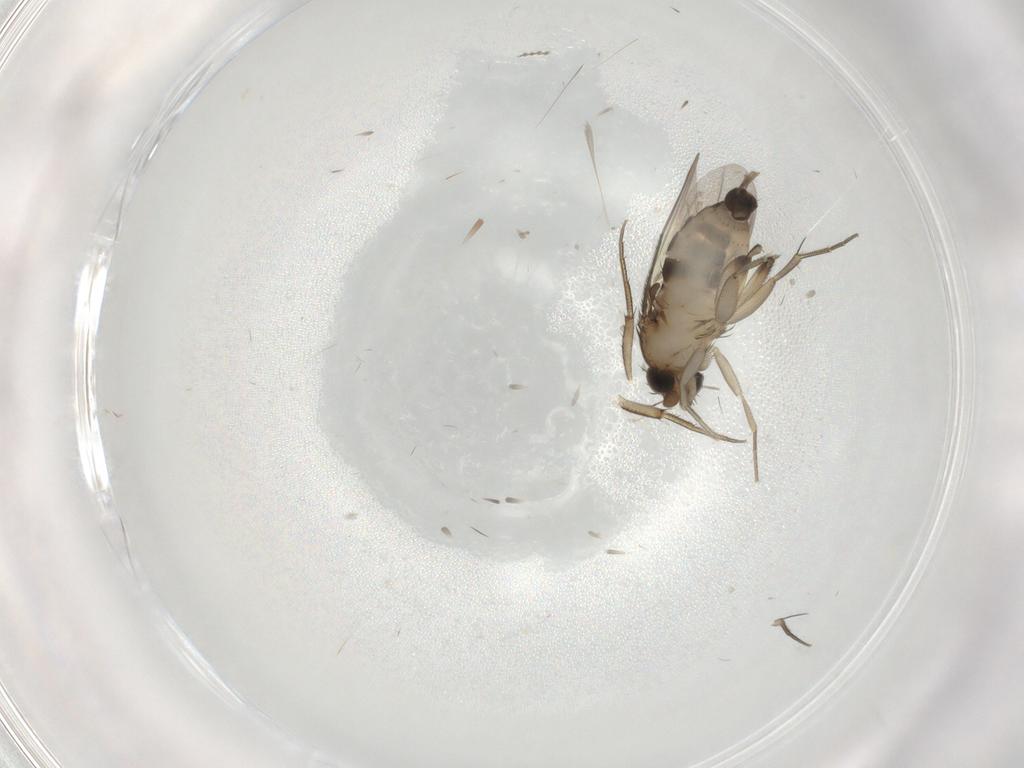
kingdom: Animalia
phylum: Arthropoda
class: Insecta
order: Diptera
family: Phoridae
